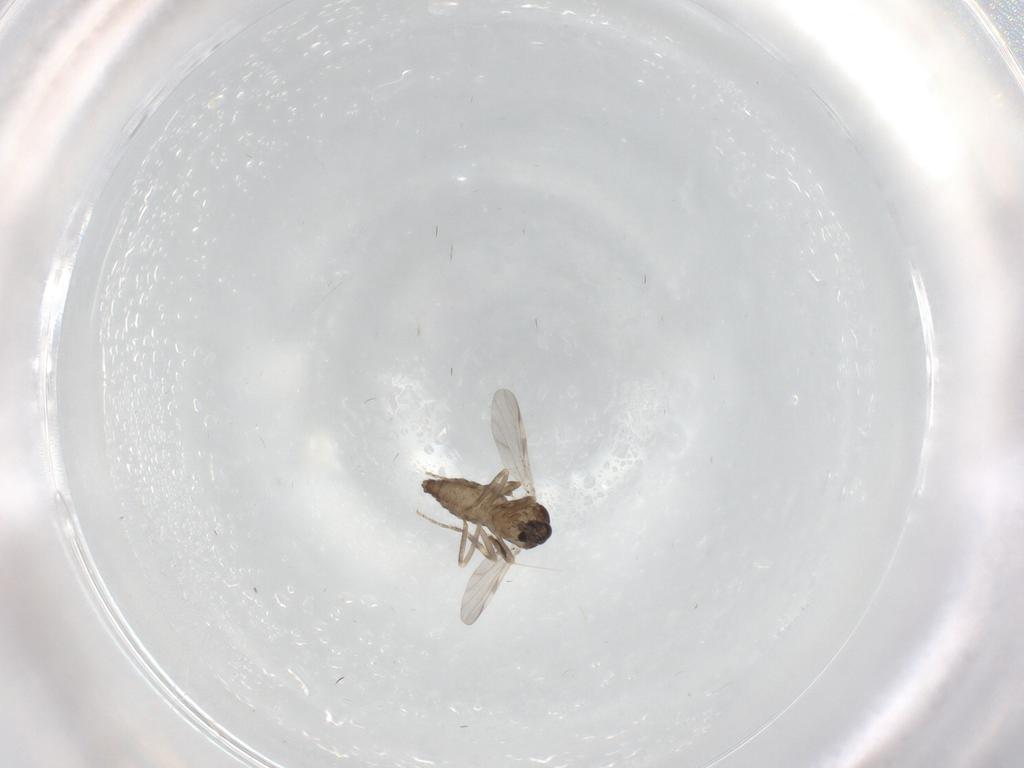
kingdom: Animalia
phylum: Arthropoda
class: Insecta
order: Diptera
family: Ceratopogonidae
